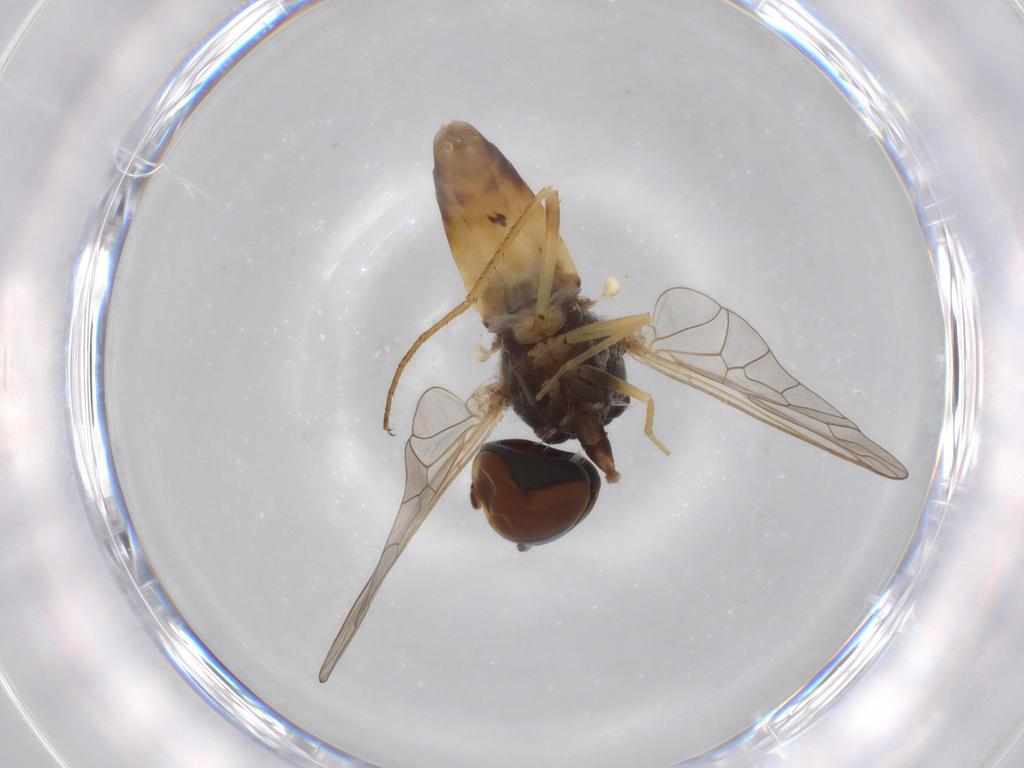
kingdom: Animalia
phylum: Arthropoda
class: Insecta
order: Diptera
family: Bombyliidae
